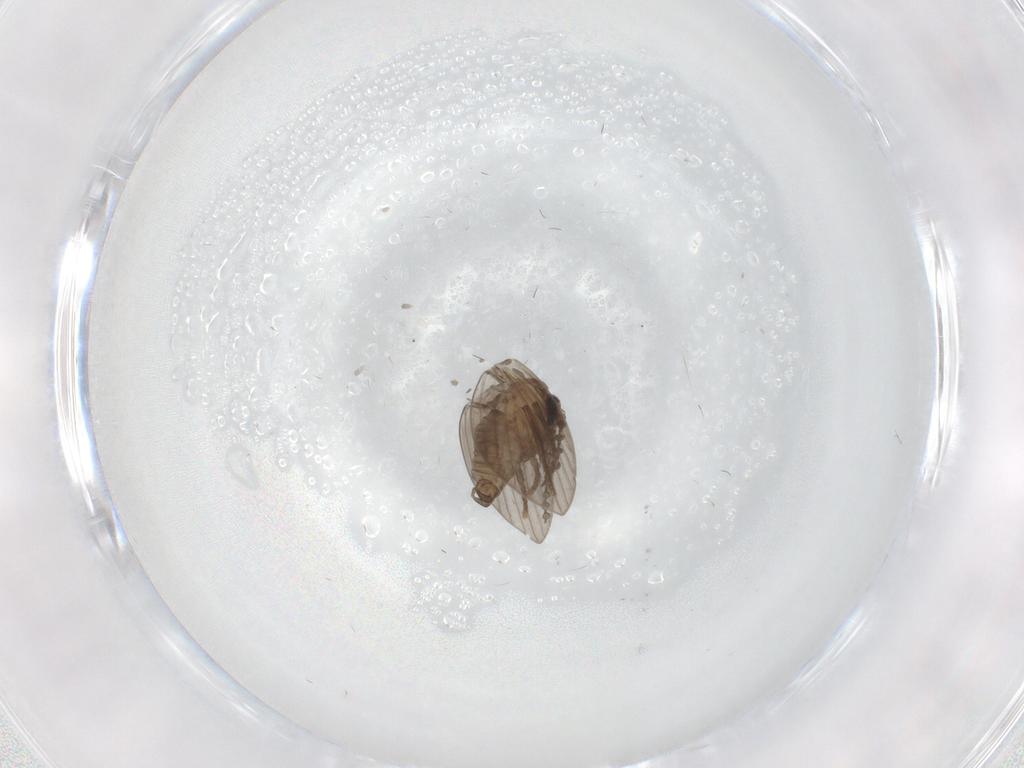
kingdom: Animalia
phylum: Arthropoda
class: Insecta
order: Diptera
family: Psychodidae
